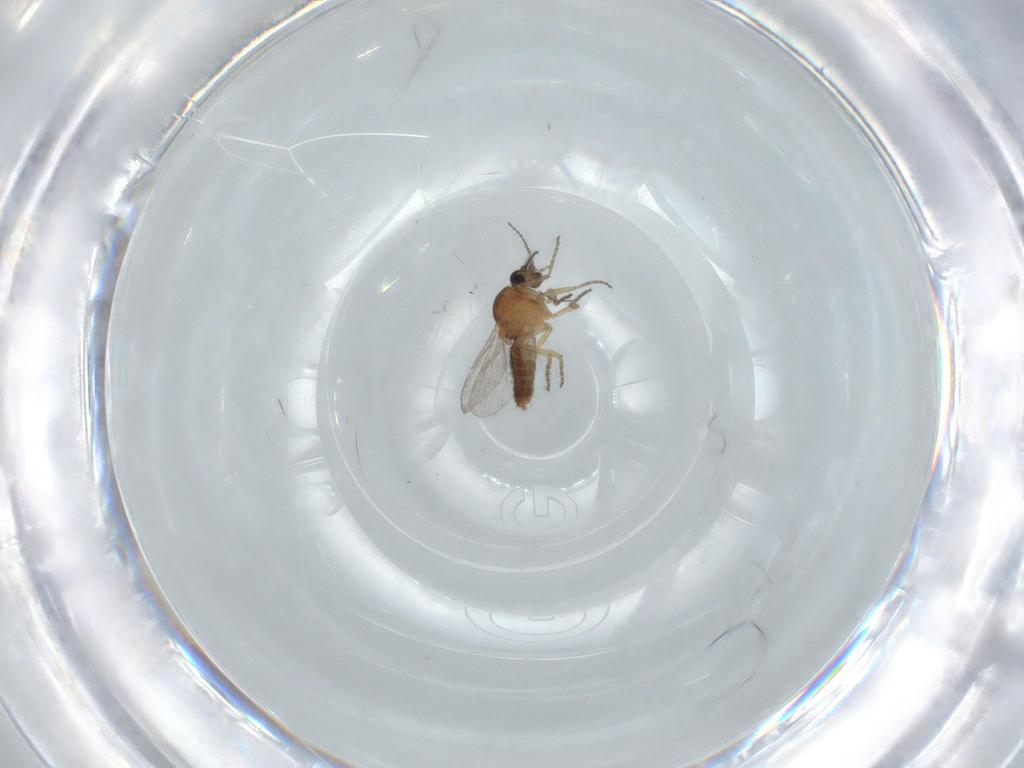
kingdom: Animalia
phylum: Arthropoda
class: Insecta
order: Diptera
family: Ceratopogonidae
